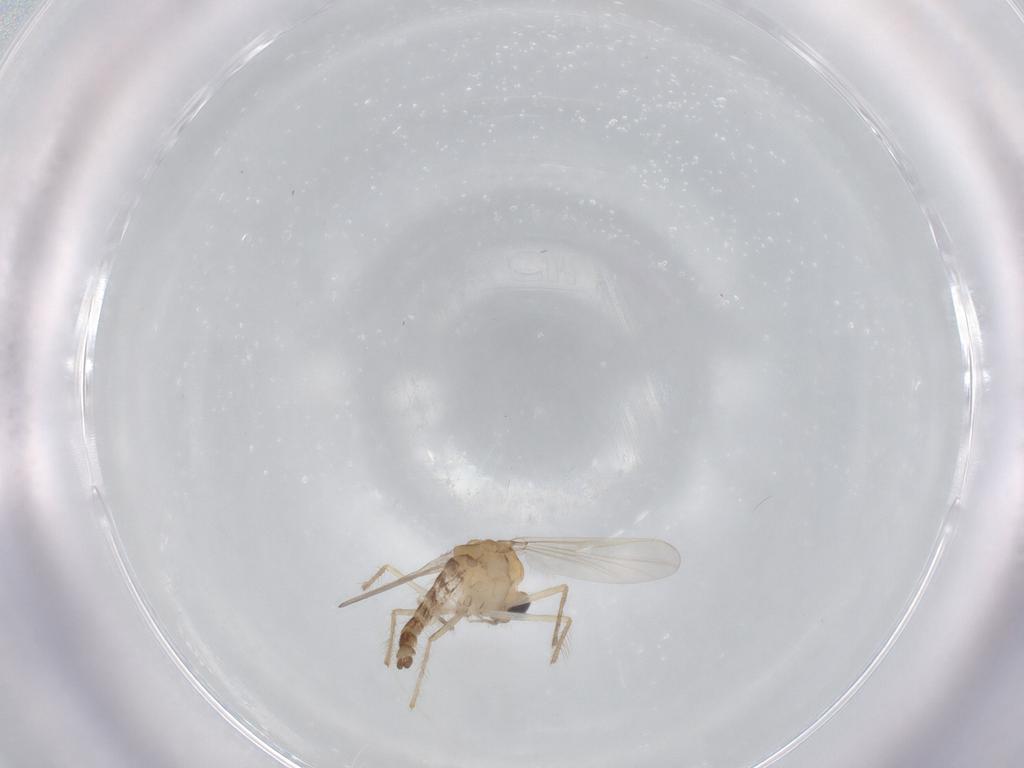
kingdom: Animalia
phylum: Arthropoda
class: Insecta
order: Diptera
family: Chironomidae
